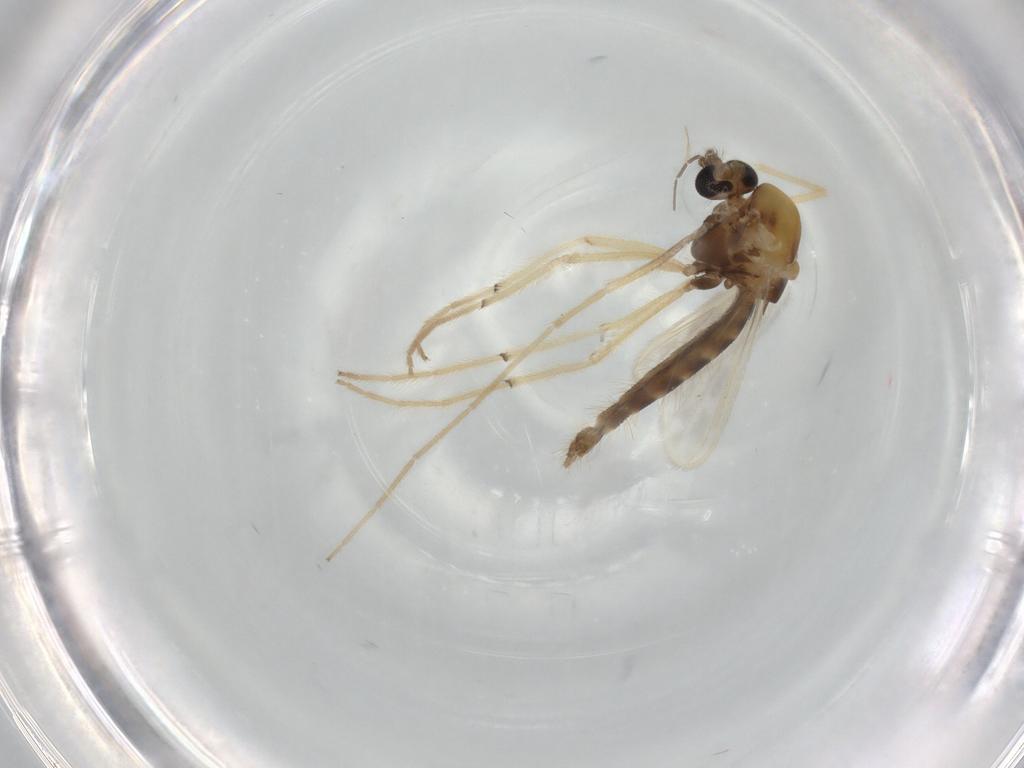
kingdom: Animalia
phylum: Arthropoda
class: Insecta
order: Diptera
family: Chironomidae
